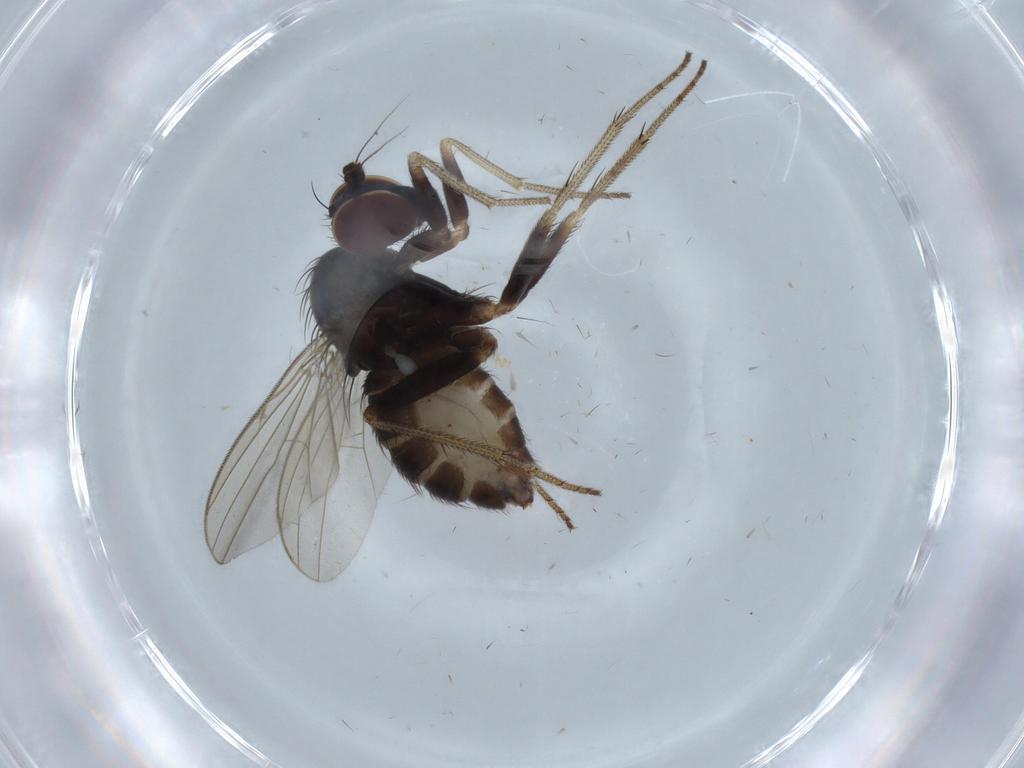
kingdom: Animalia
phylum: Arthropoda
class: Insecta
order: Diptera
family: Dolichopodidae
